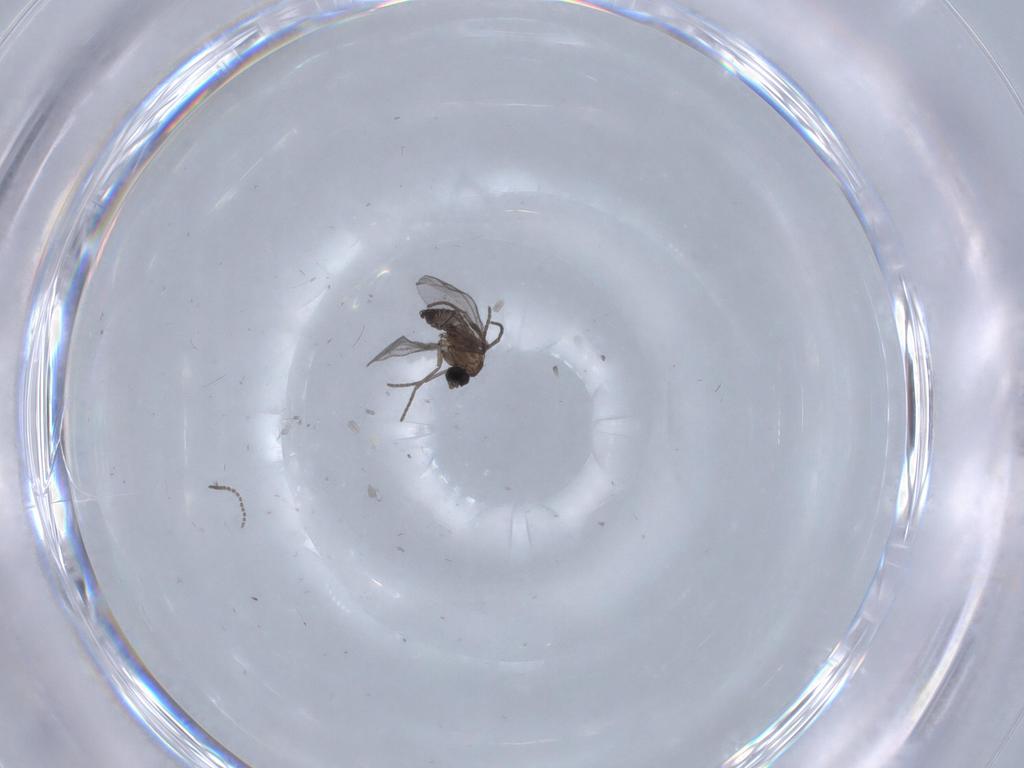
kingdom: Animalia
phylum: Arthropoda
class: Insecta
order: Diptera
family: Chironomidae
